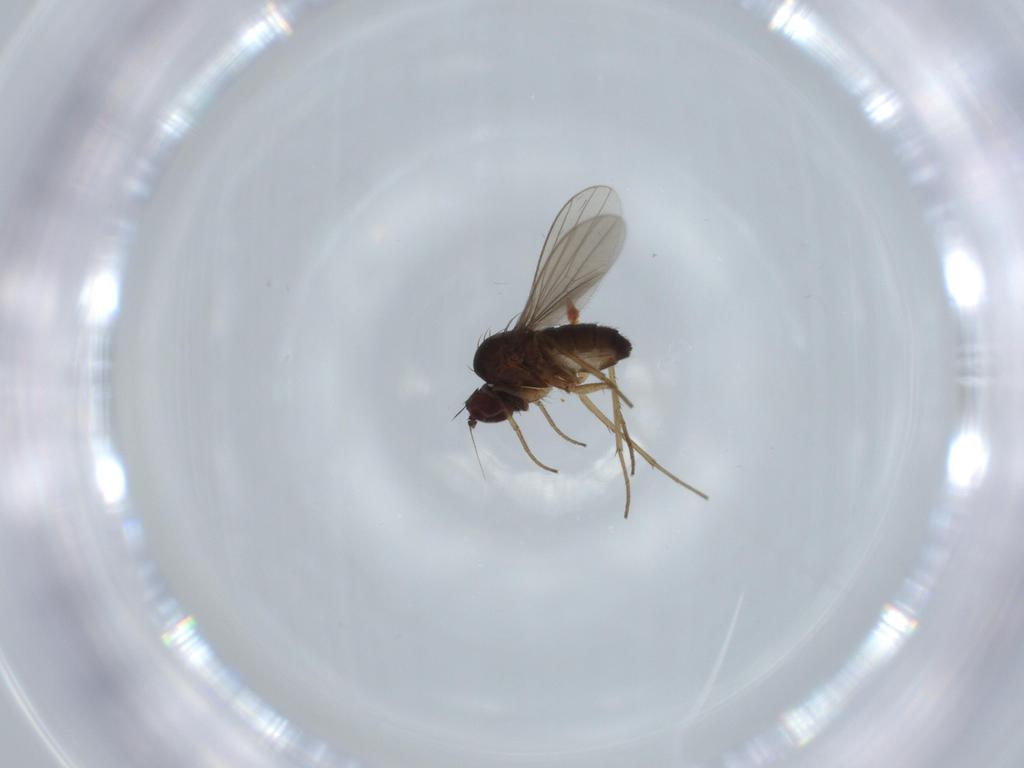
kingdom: Animalia
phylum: Arthropoda
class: Insecta
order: Diptera
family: Dolichopodidae
